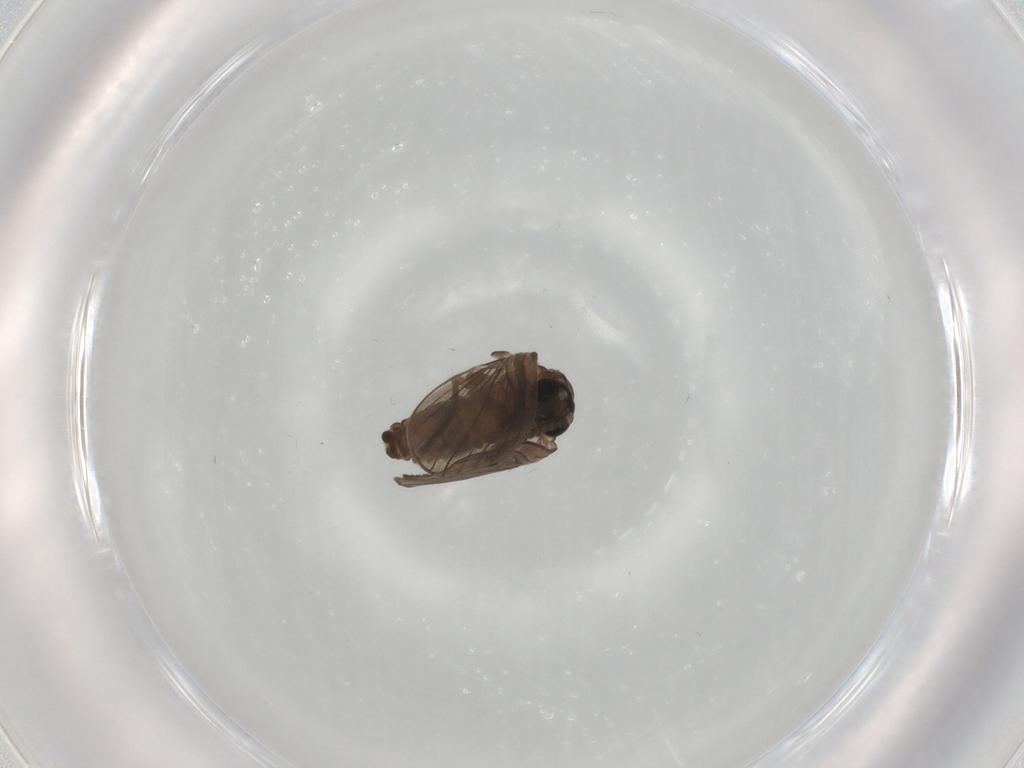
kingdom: Animalia
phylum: Arthropoda
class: Insecta
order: Diptera
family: Psychodidae
